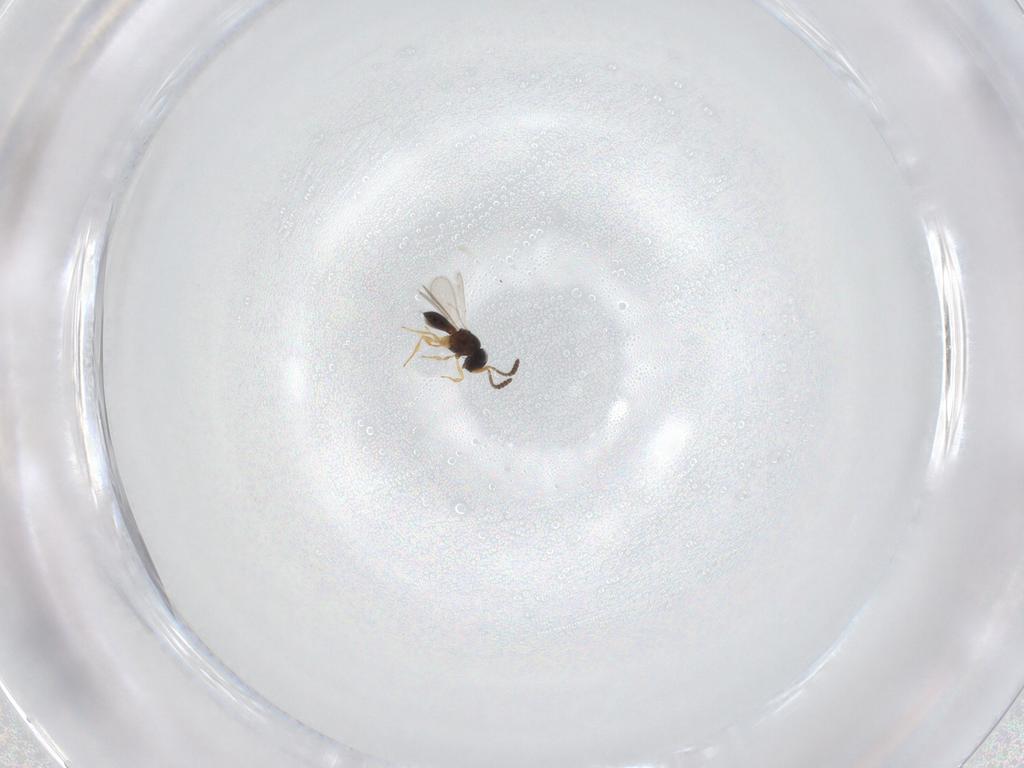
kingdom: Animalia
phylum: Arthropoda
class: Insecta
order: Hymenoptera
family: Scelionidae
